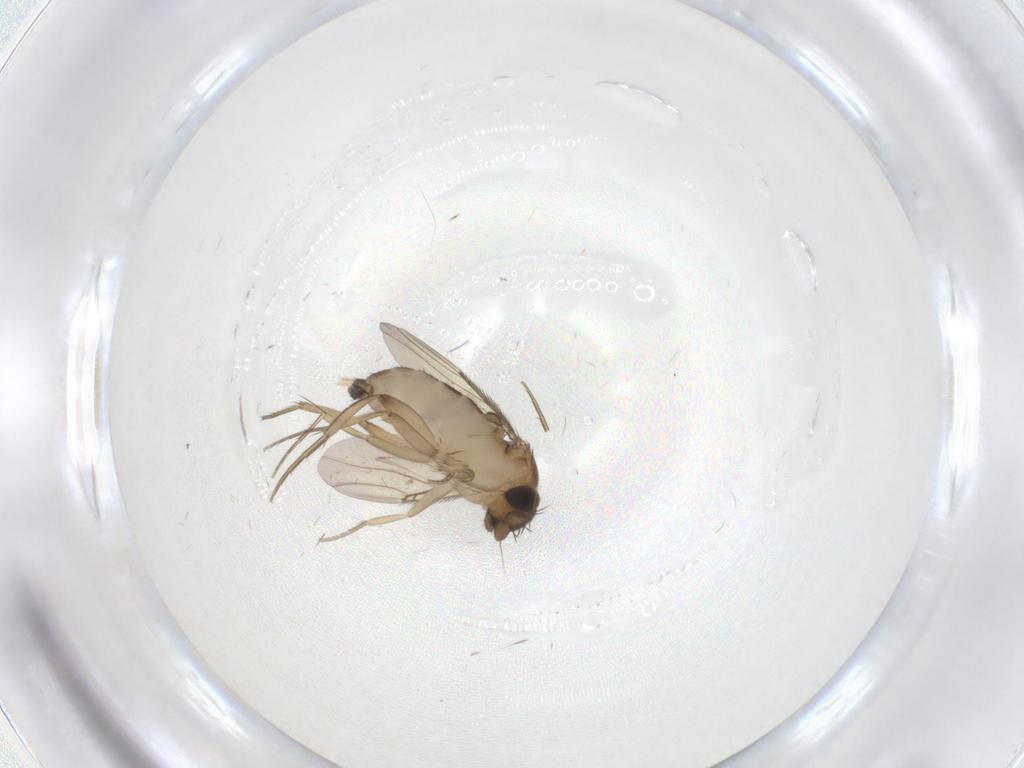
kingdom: Animalia
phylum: Arthropoda
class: Insecta
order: Diptera
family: Phoridae
